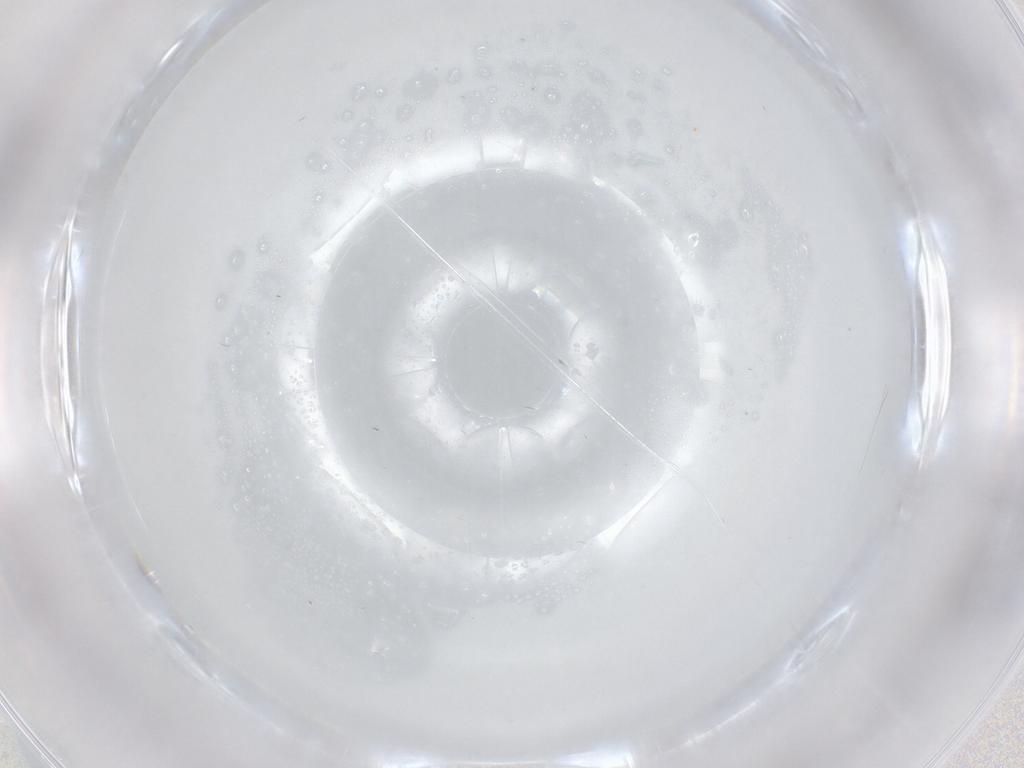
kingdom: Animalia
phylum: Arthropoda
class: Insecta
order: Diptera
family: Cecidomyiidae
